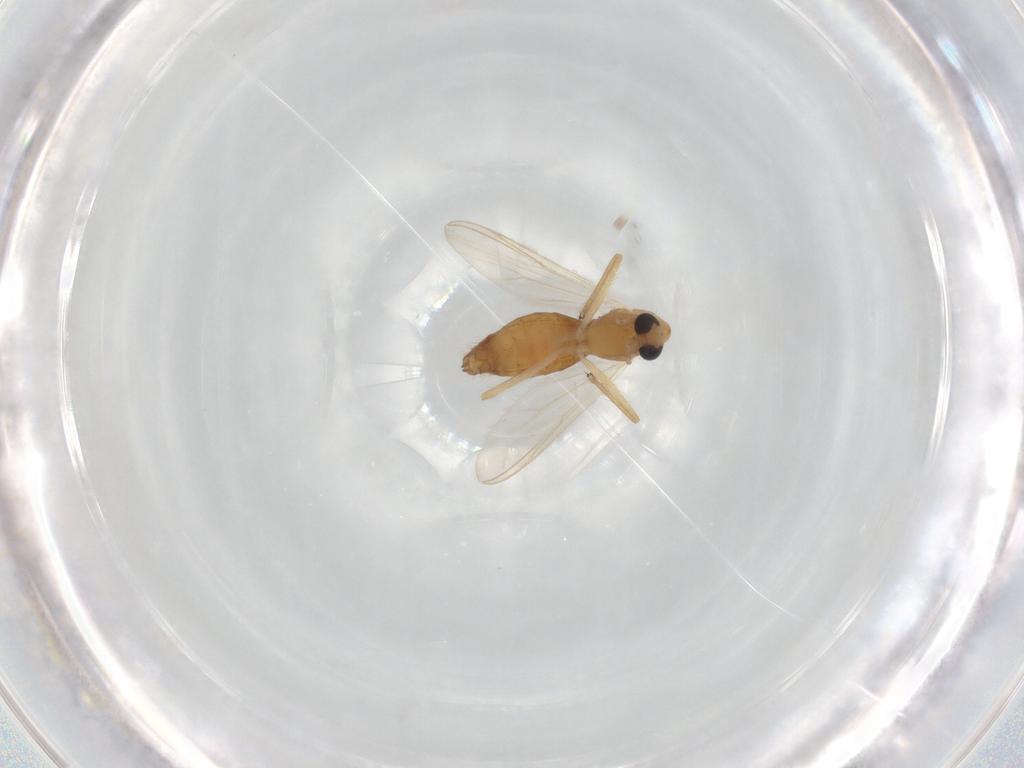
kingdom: Animalia
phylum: Arthropoda
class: Insecta
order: Diptera
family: Chironomidae
